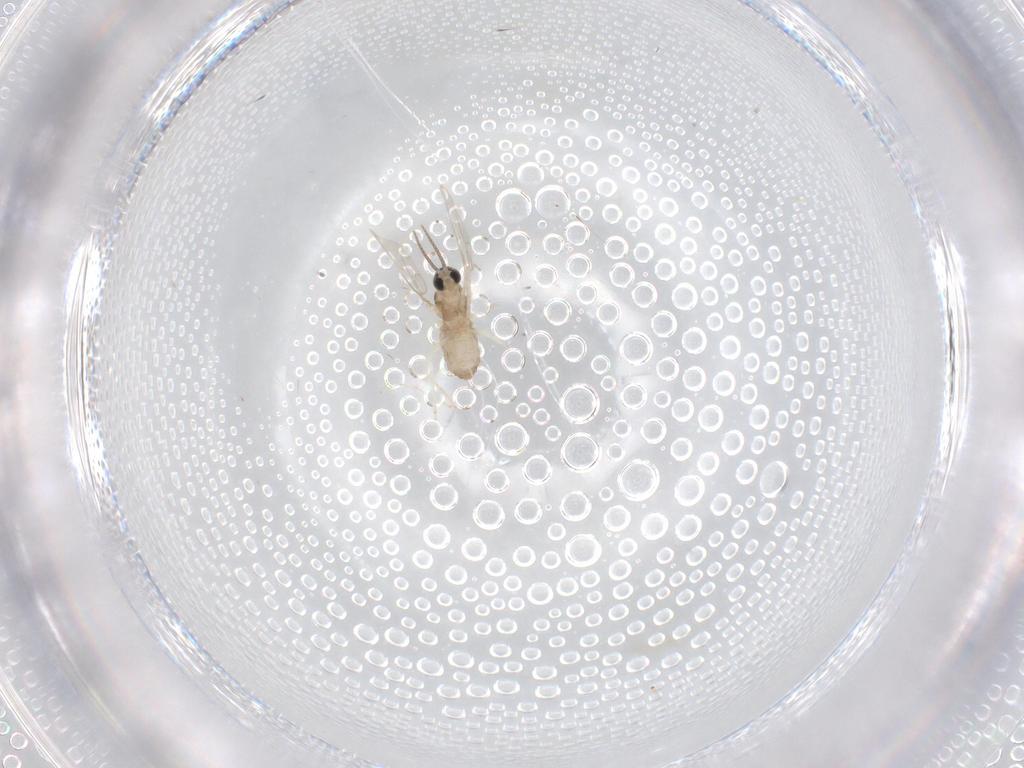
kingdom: Animalia
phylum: Arthropoda
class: Insecta
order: Diptera
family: Cecidomyiidae
